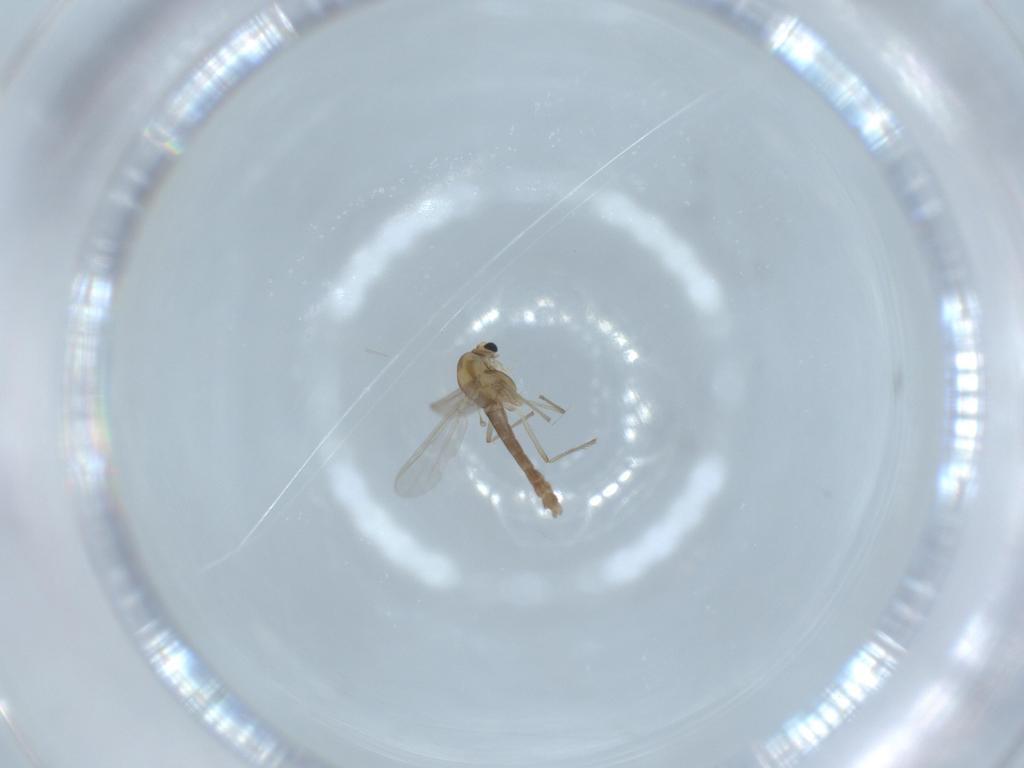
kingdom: Animalia
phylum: Arthropoda
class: Insecta
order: Diptera
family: Chironomidae
